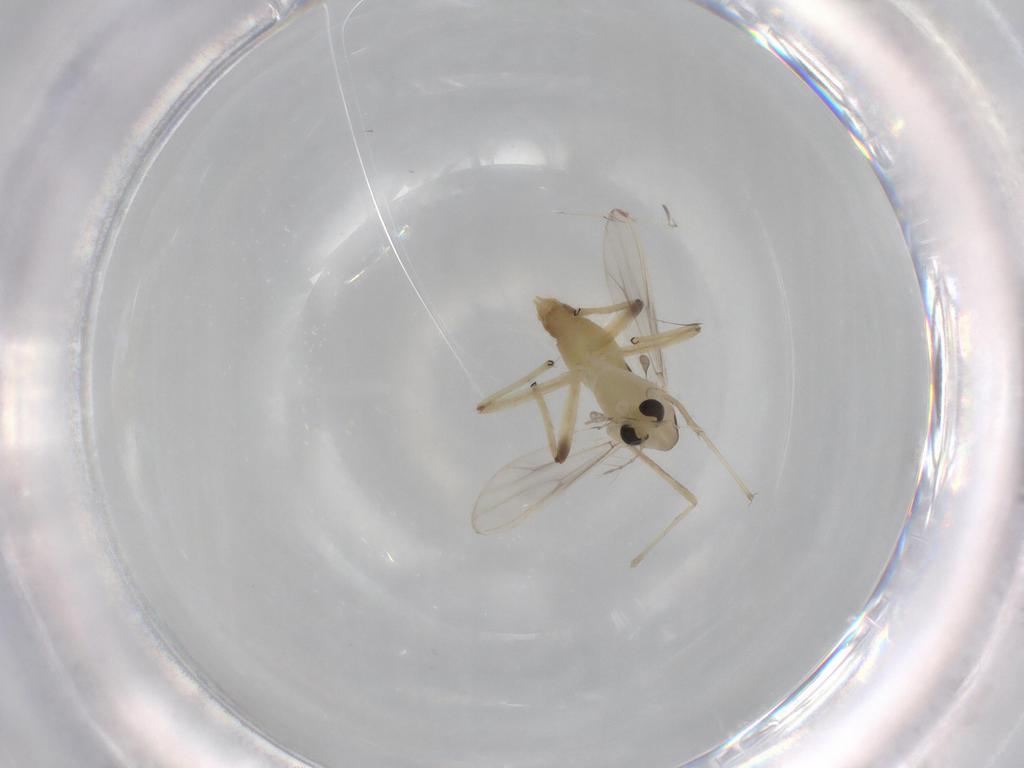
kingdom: Animalia
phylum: Arthropoda
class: Insecta
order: Diptera
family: Chironomidae
